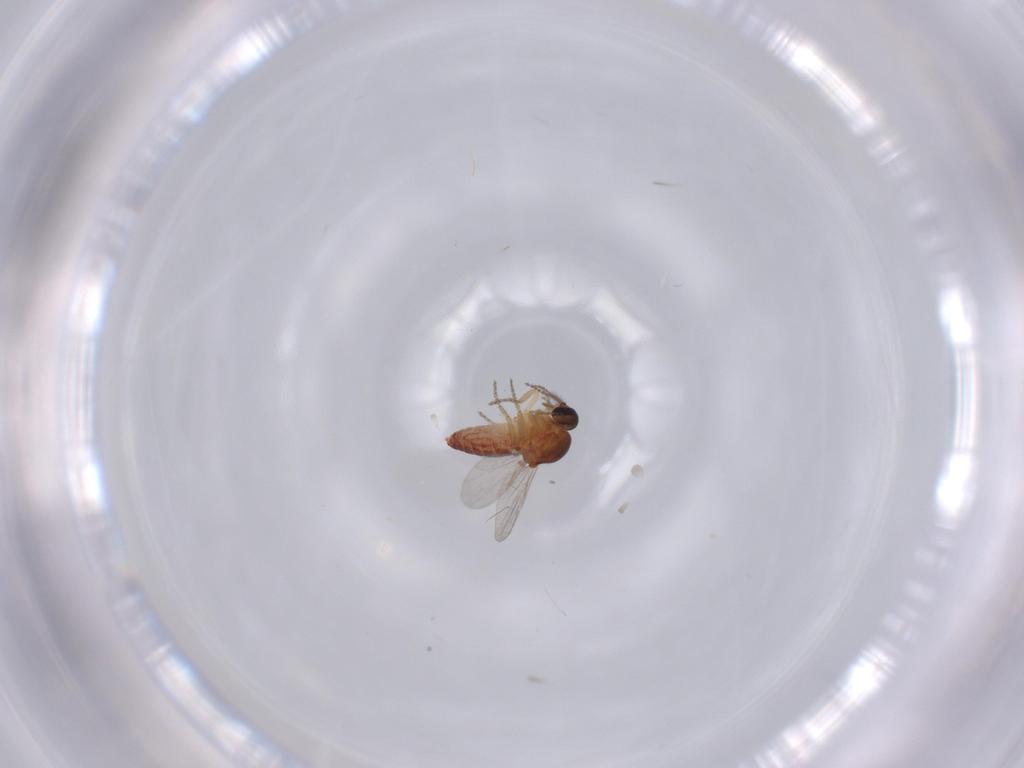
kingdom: Animalia
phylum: Arthropoda
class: Insecta
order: Diptera
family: Ceratopogonidae
